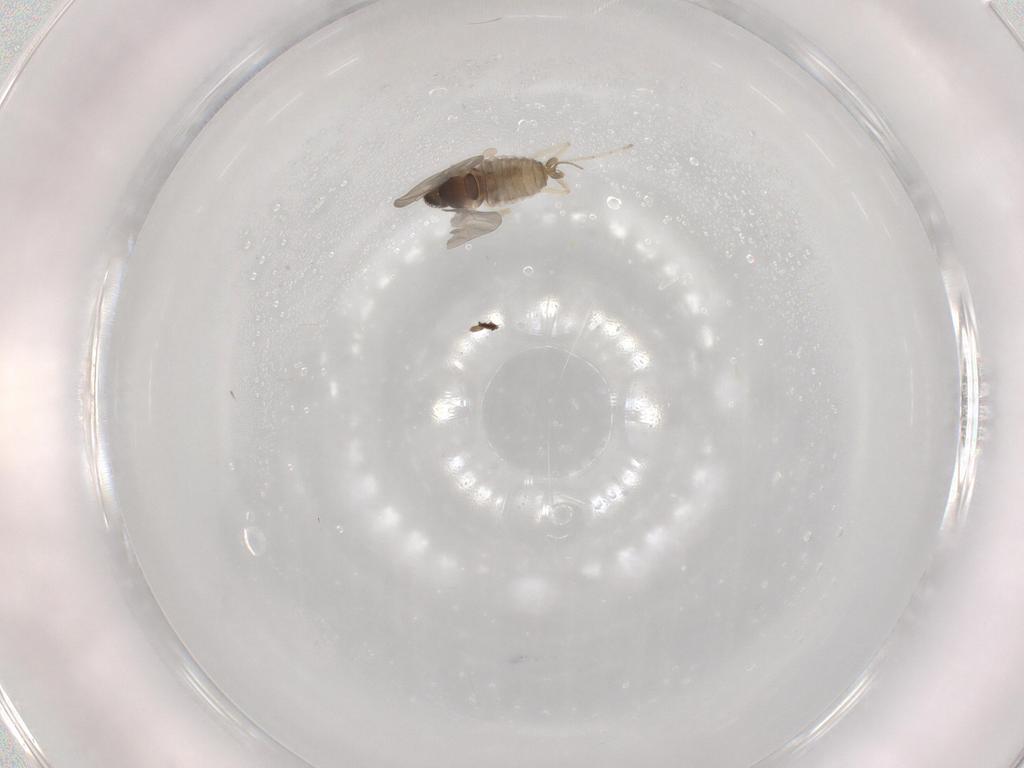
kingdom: Animalia
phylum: Arthropoda
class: Insecta
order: Diptera
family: Cecidomyiidae
